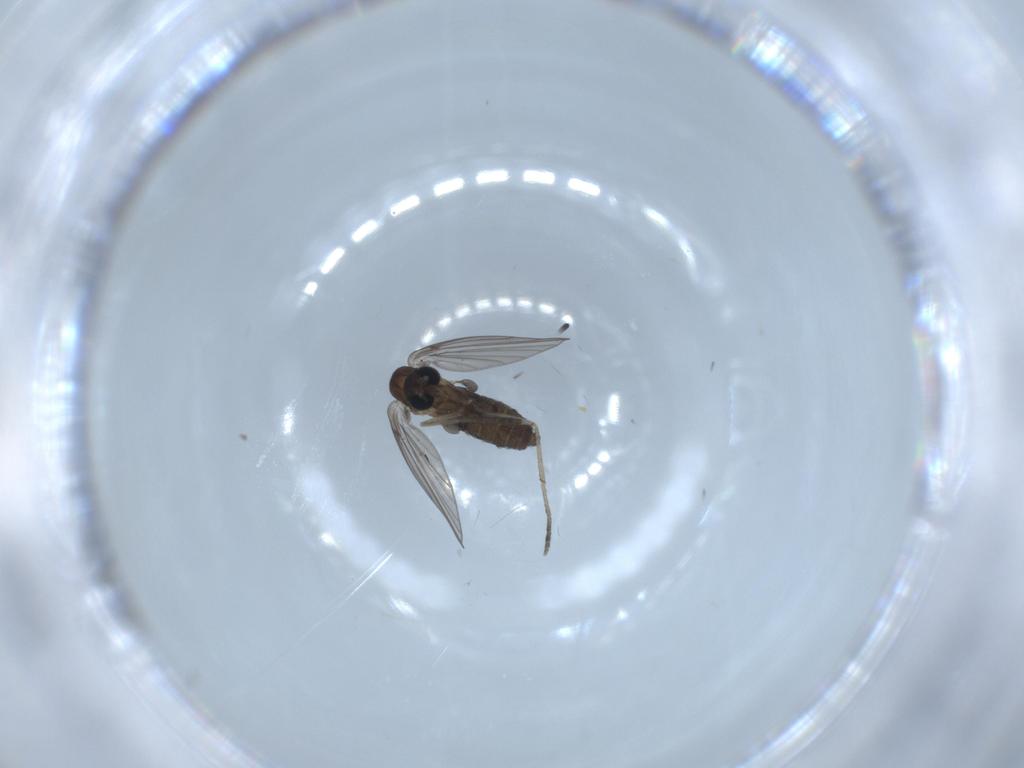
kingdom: Animalia
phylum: Arthropoda
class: Insecta
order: Diptera
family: Psychodidae
